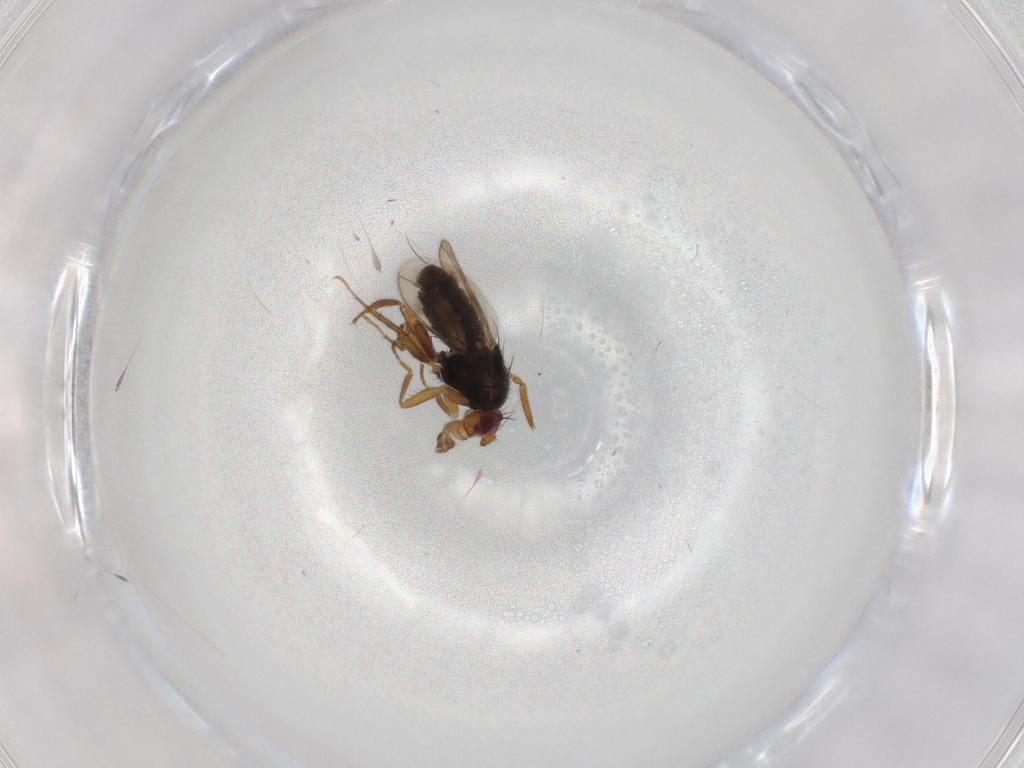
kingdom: Animalia
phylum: Arthropoda
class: Insecta
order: Diptera
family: Sphaeroceridae
